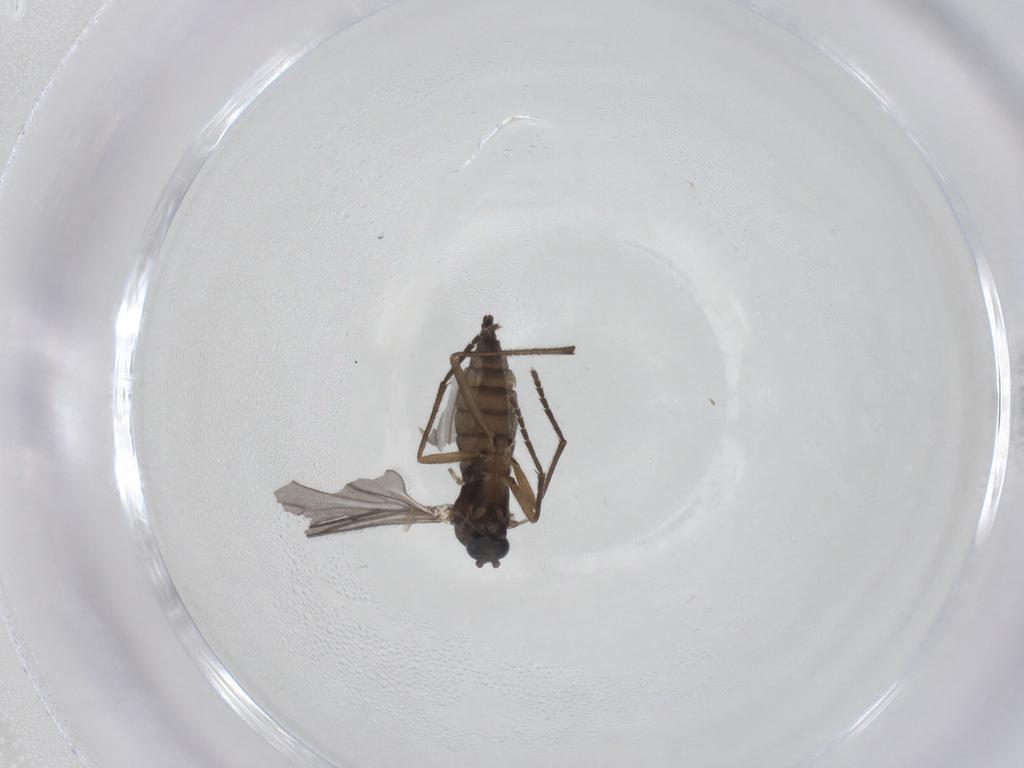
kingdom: Animalia
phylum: Arthropoda
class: Insecta
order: Diptera
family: Sciaridae
